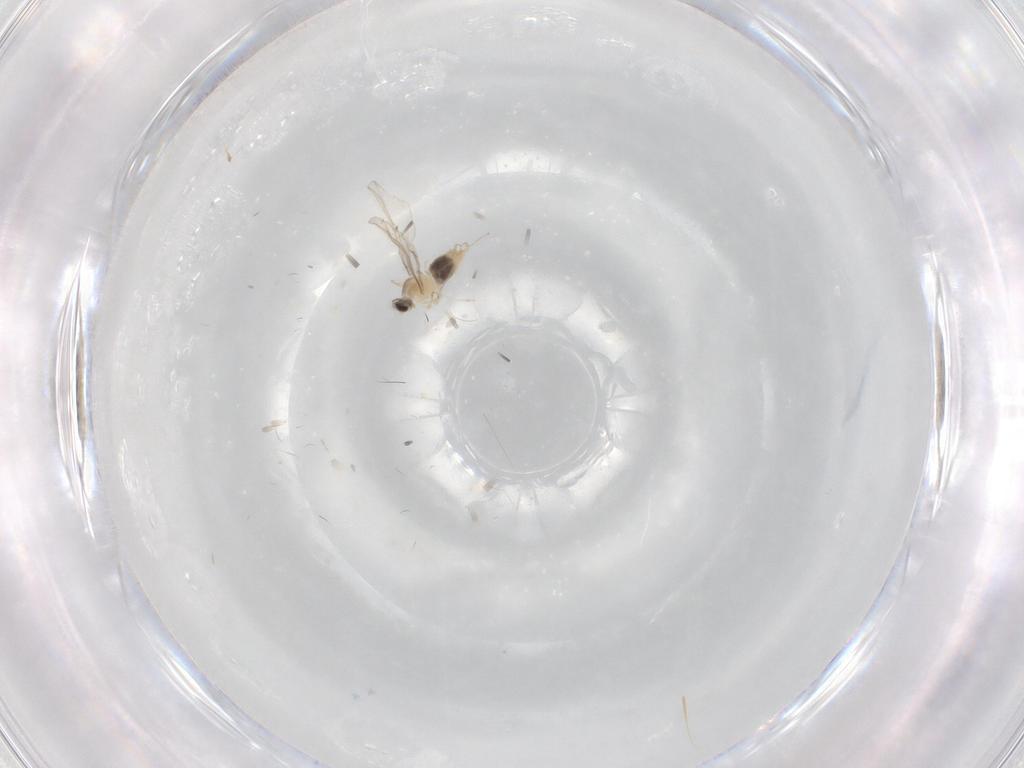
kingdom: Animalia
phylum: Arthropoda
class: Insecta
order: Diptera
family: Cecidomyiidae
